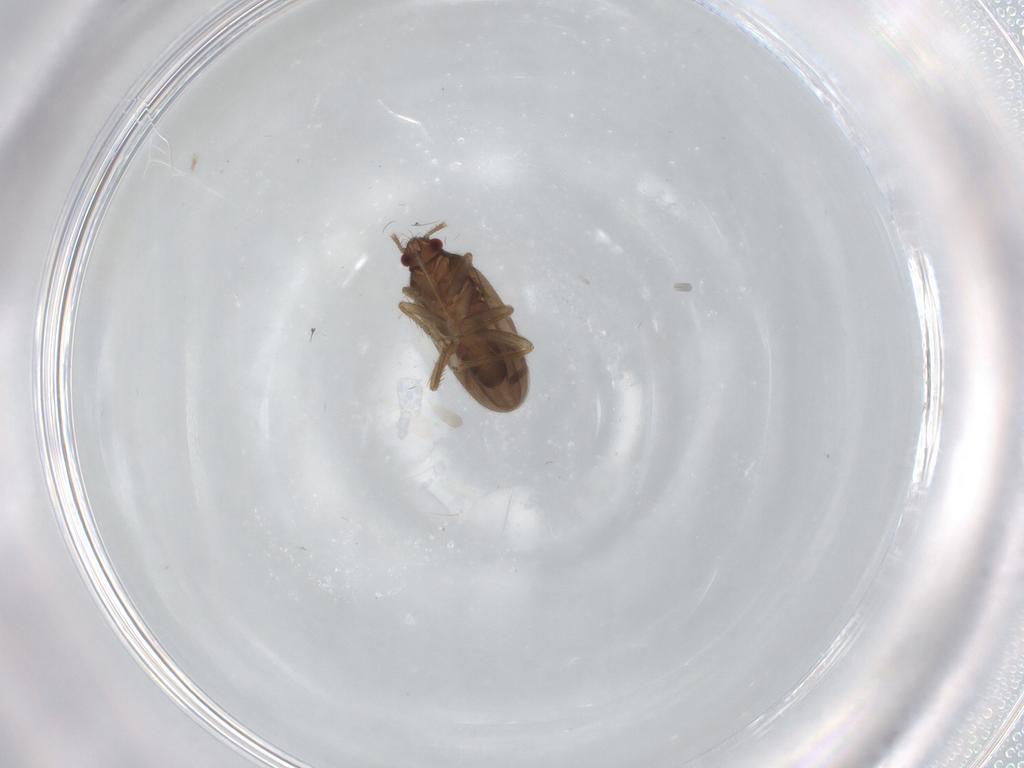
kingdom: Animalia
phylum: Arthropoda
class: Insecta
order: Hemiptera
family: Ceratocombidae
